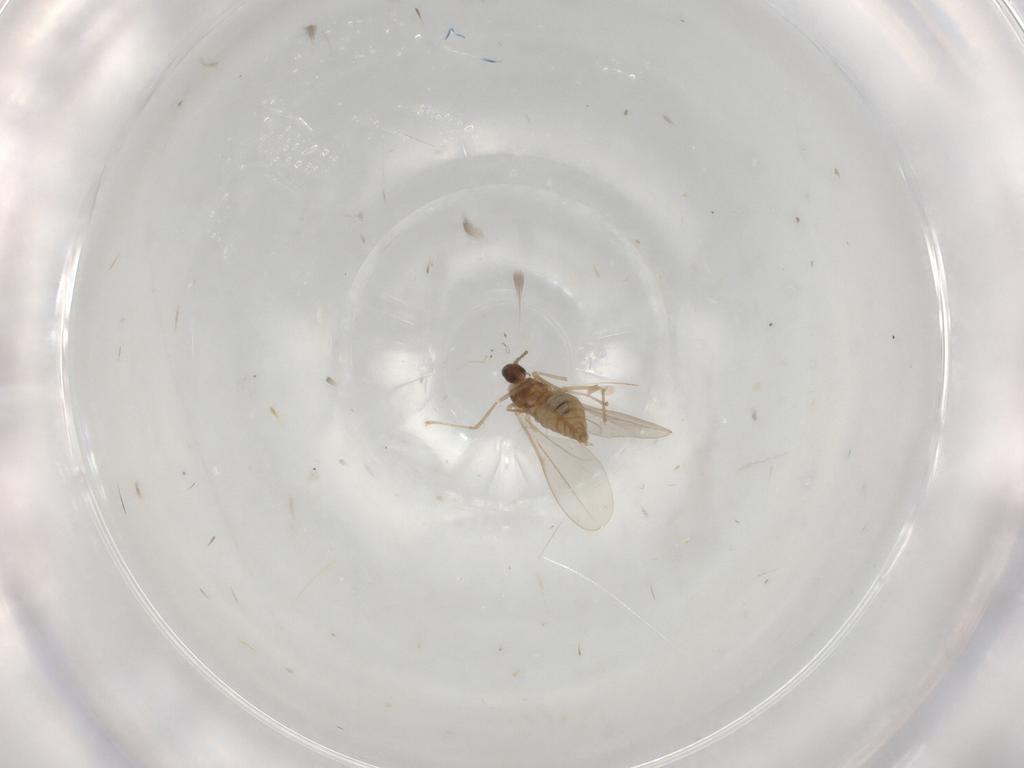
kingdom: Animalia
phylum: Arthropoda
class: Insecta
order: Diptera
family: Cecidomyiidae
